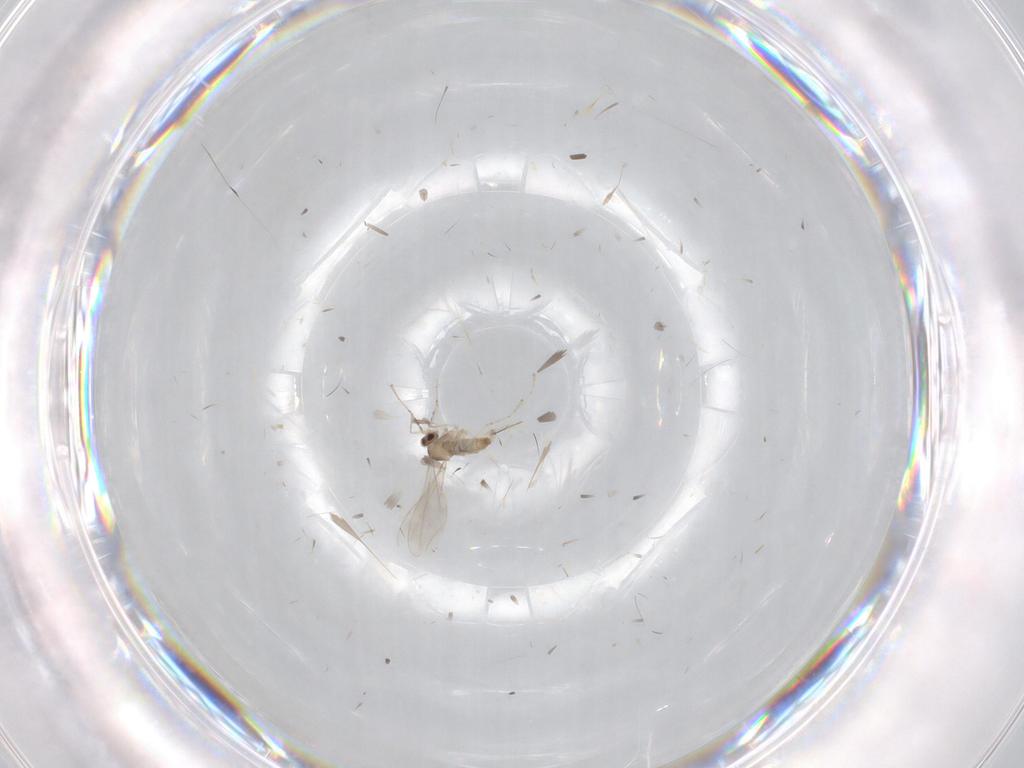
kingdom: Animalia
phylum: Arthropoda
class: Insecta
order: Diptera
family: Cecidomyiidae
